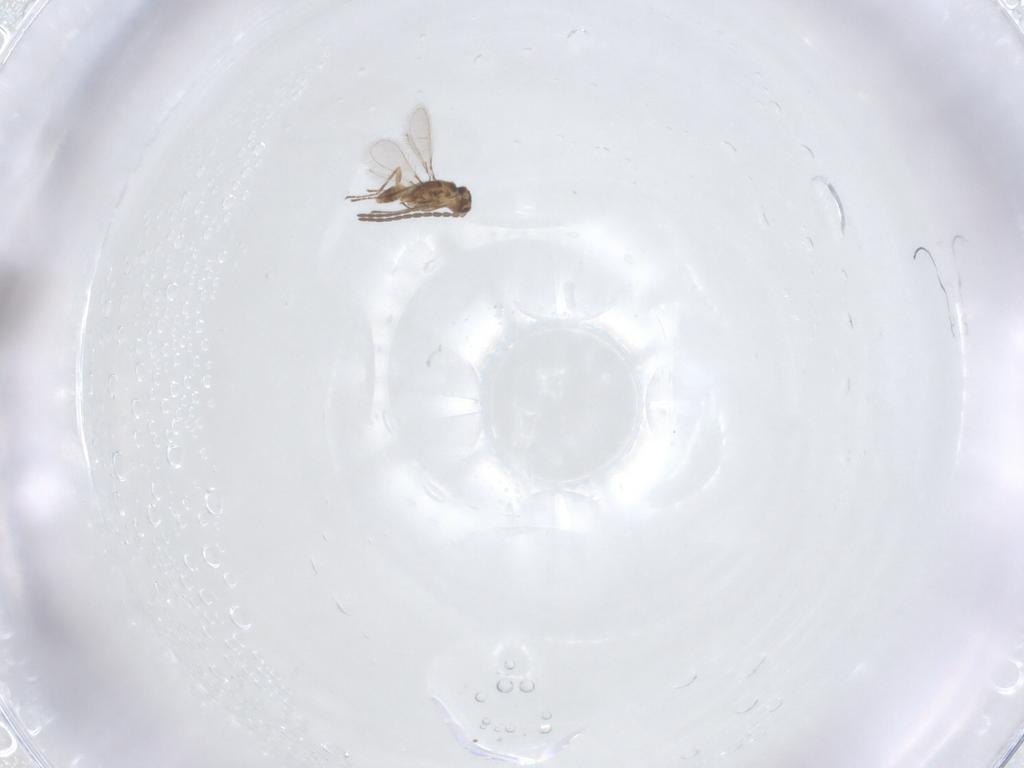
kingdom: Animalia
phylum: Arthropoda
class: Insecta
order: Hymenoptera
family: Mymaridae
